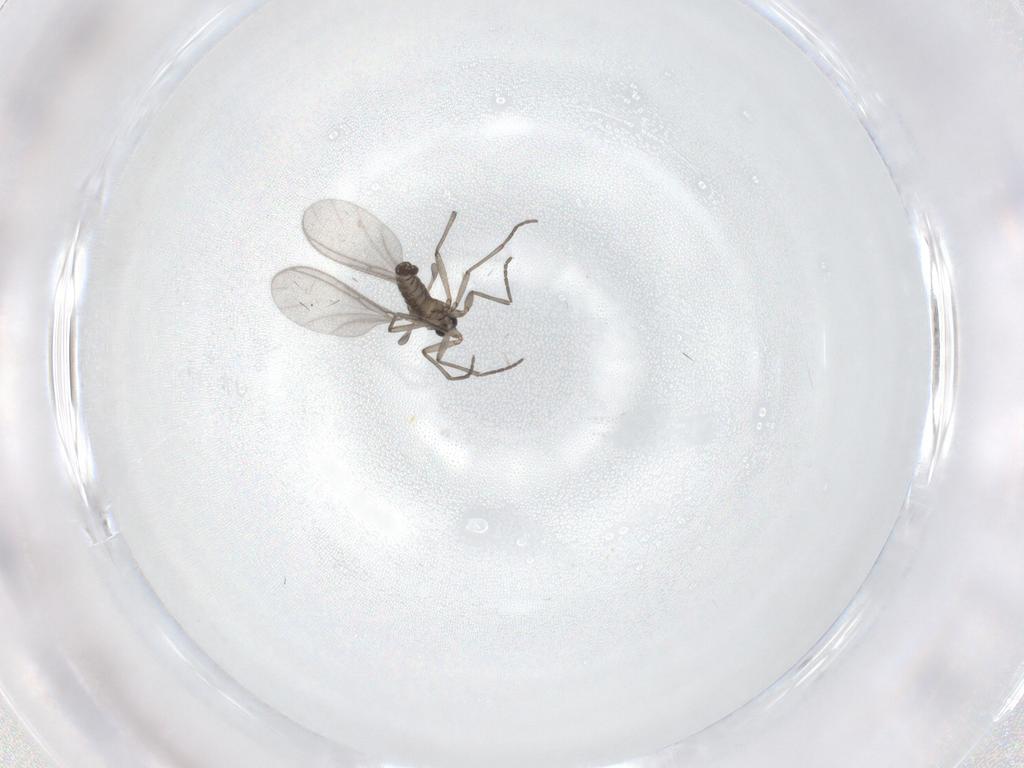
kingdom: Animalia
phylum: Arthropoda
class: Insecta
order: Diptera
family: Sciaridae
